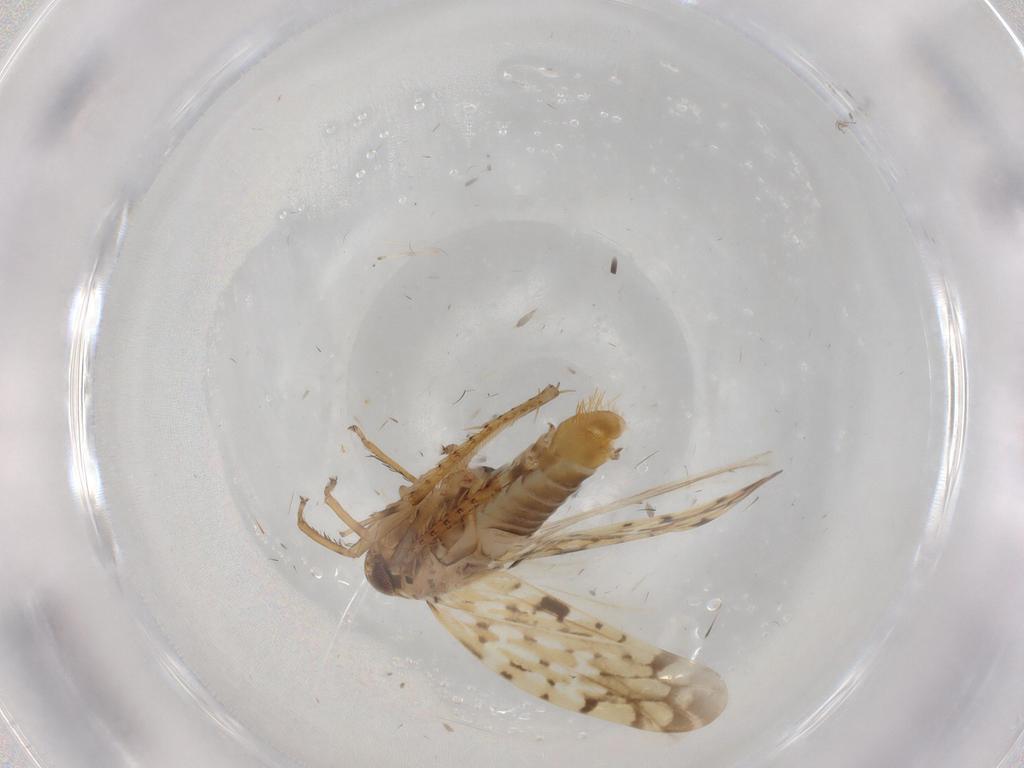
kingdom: Animalia
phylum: Arthropoda
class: Insecta
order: Hemiptera
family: Cicadellidae
